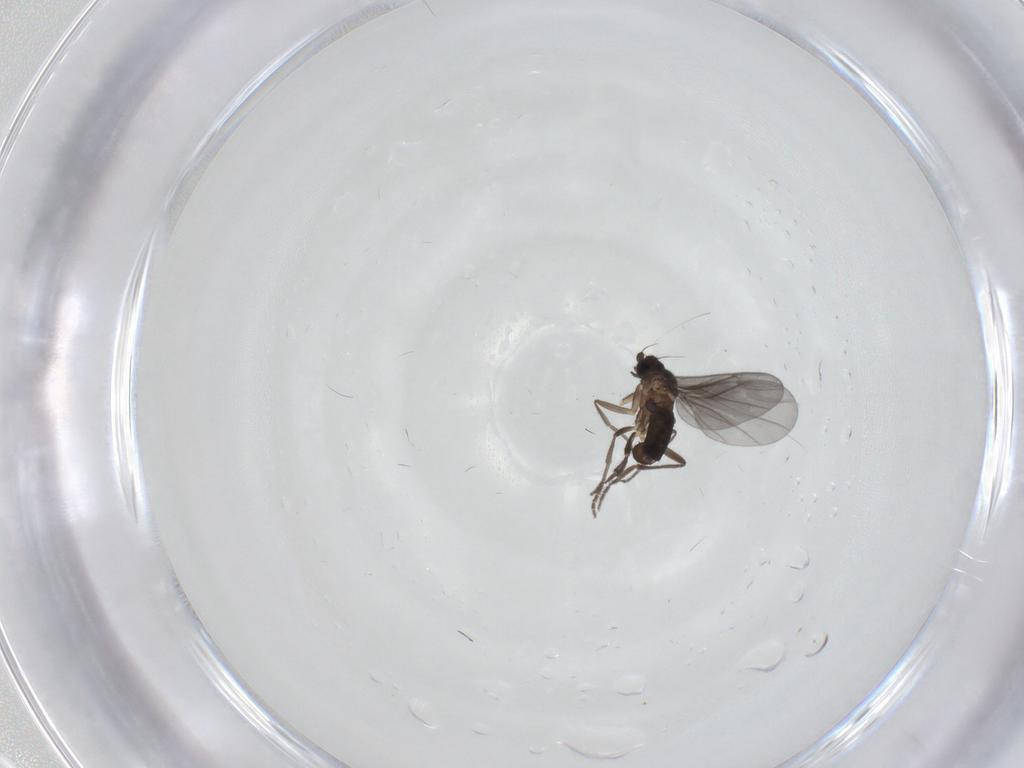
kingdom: Animalia
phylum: Arthropoda
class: Insecta
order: Diptera
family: Phoridae
